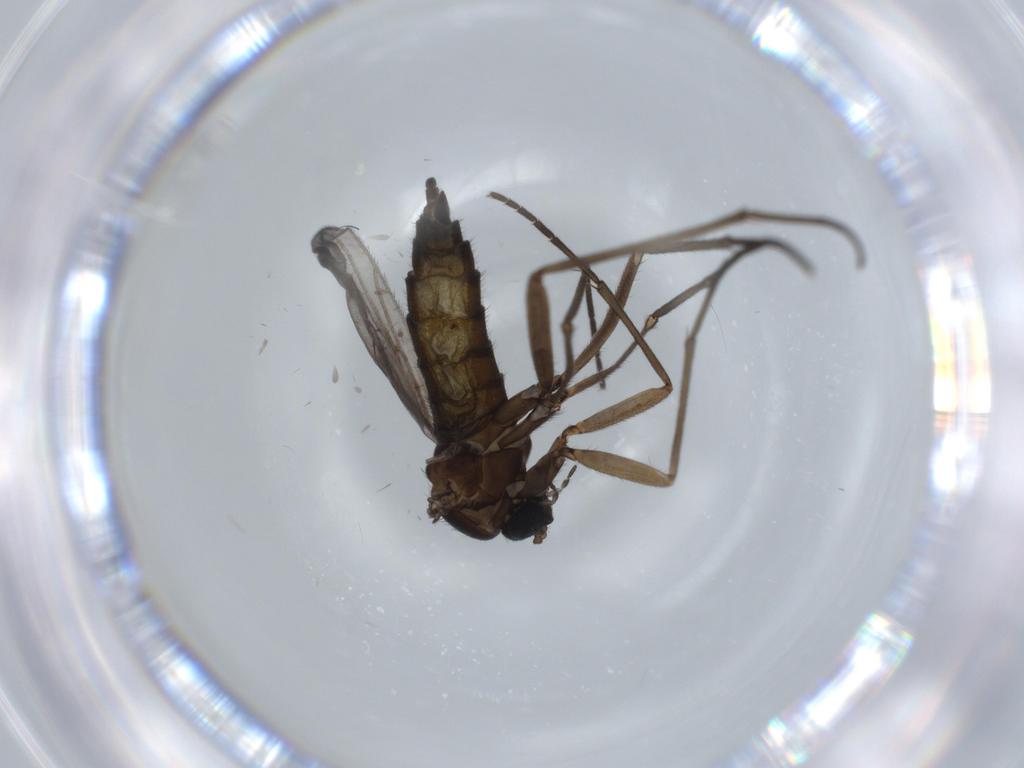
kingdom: Animalia
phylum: Arthropoda
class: Insecta
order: Diptera
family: Sciaridae
